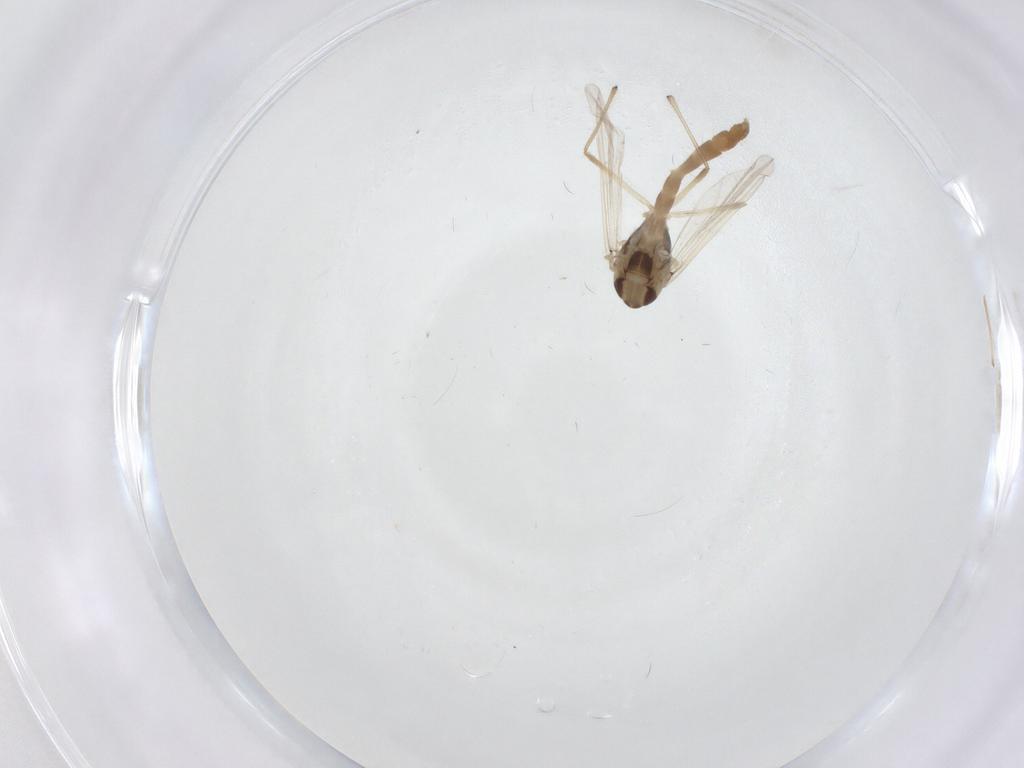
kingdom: Animalia
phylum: Arthropoda
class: Insecta
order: Diptera
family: Chironomidae
